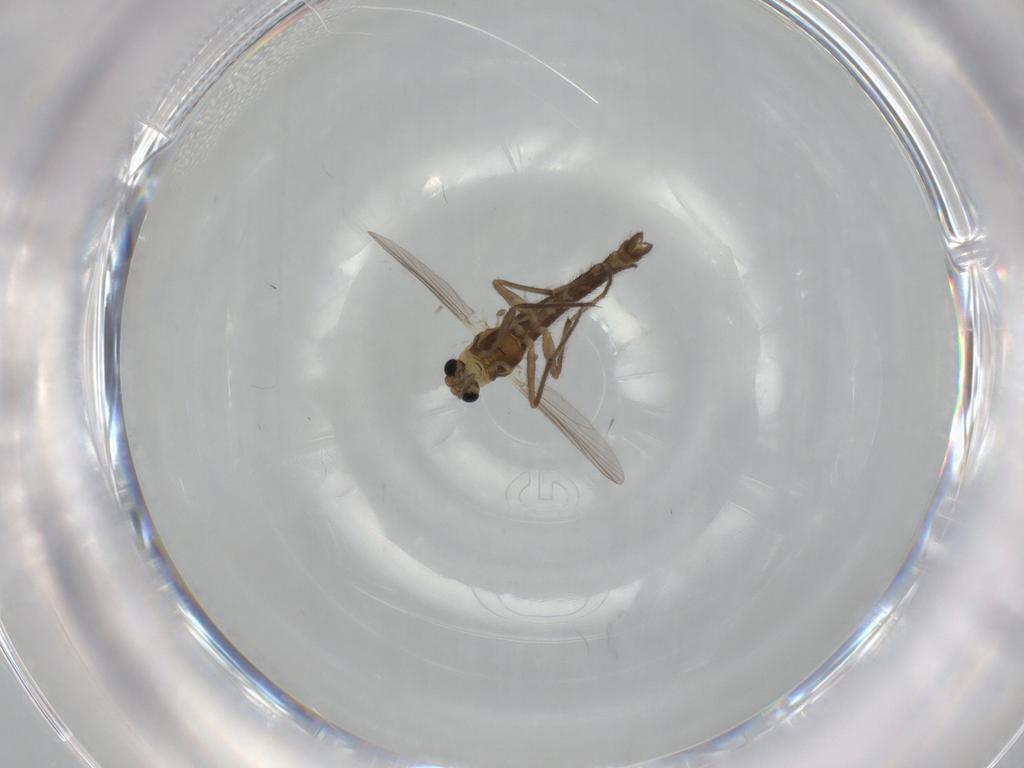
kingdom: Animalia
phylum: Arthropoda
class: Insecta
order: Diptera
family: Chironomidae
